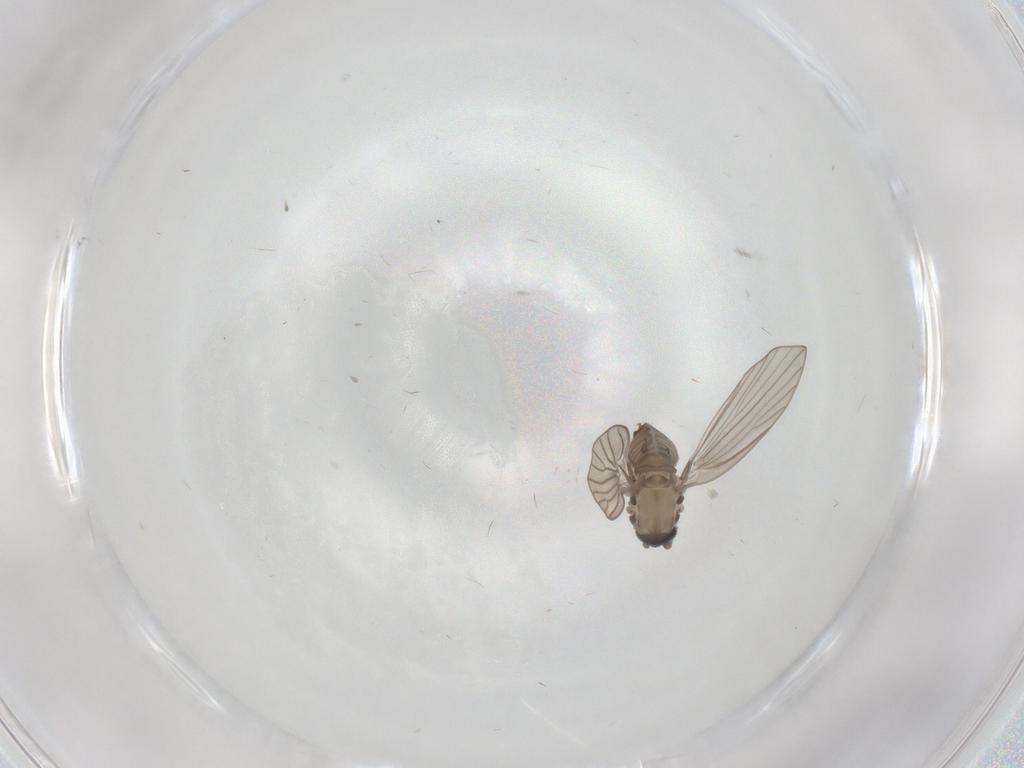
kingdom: Animalia
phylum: Arthropoda
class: Insecta
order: Diptera
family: Psychodidae
